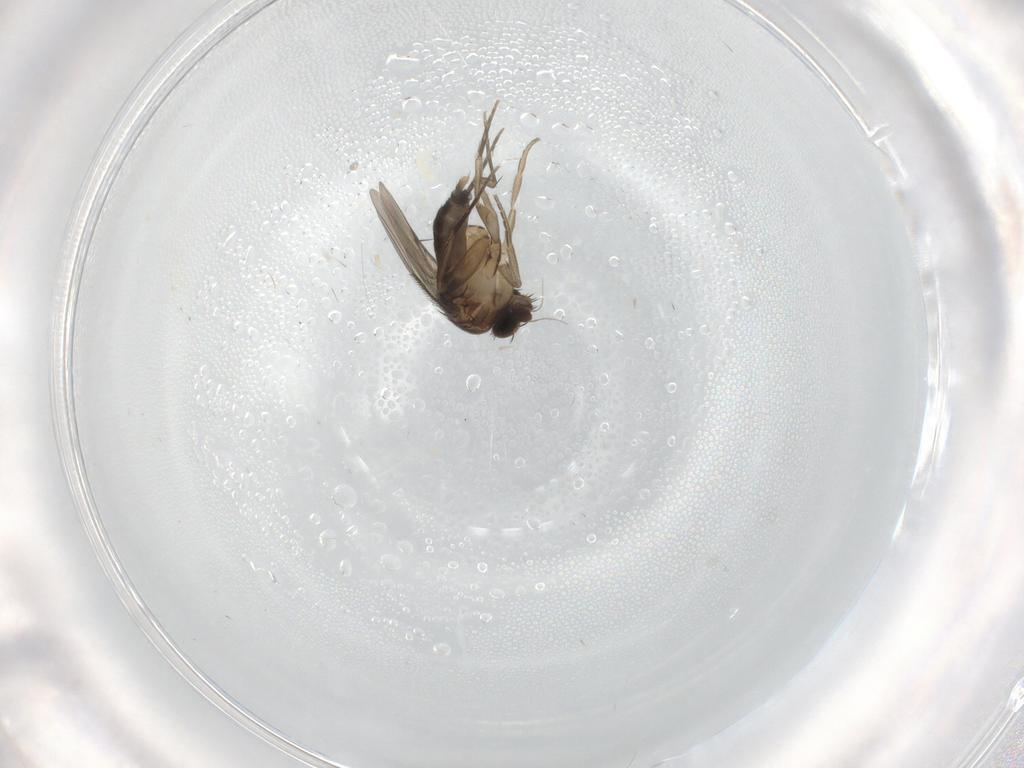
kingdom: Animalia
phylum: Arthropoda
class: Insecta
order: Diptera
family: Phoridae
